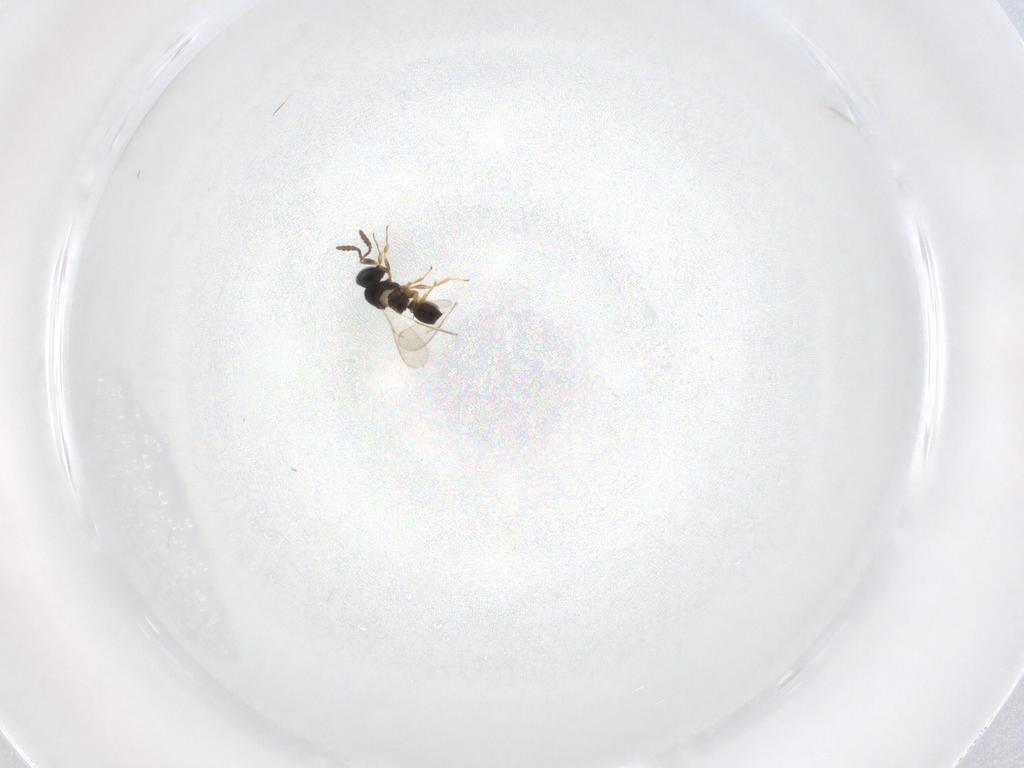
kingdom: Animalia
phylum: Arthropoda
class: Insecta
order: Hymenoptera
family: Scelionidae
